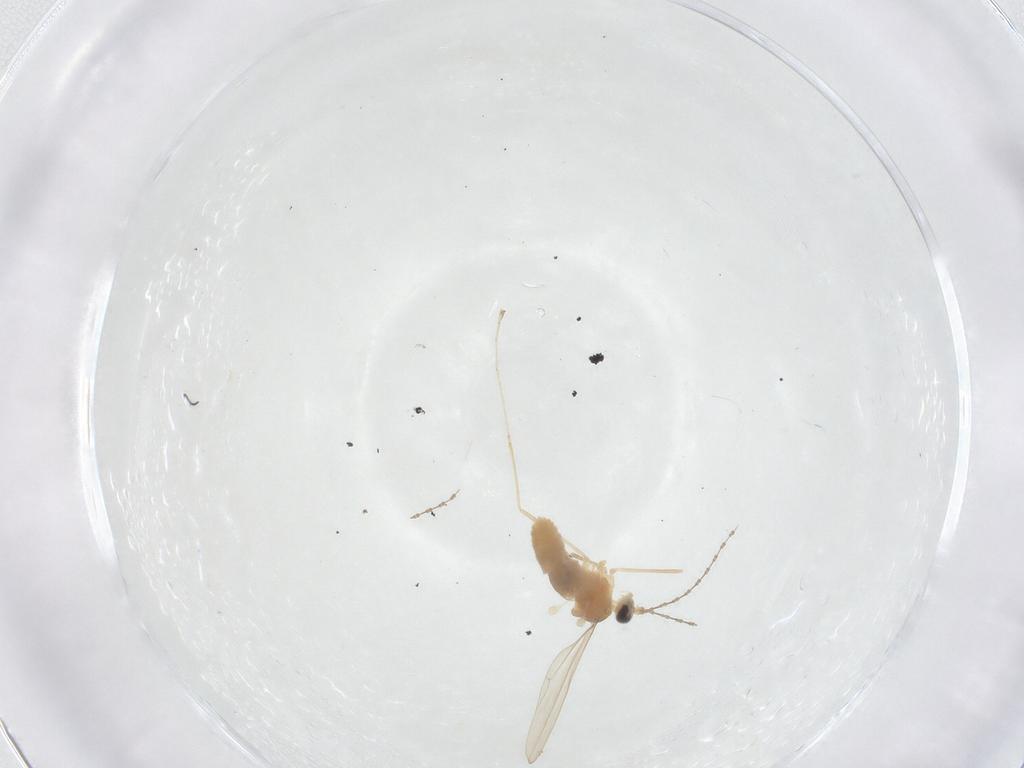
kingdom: Animalia
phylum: Arthropoda
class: Insecta
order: Diptera
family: Cecidomyiidae
